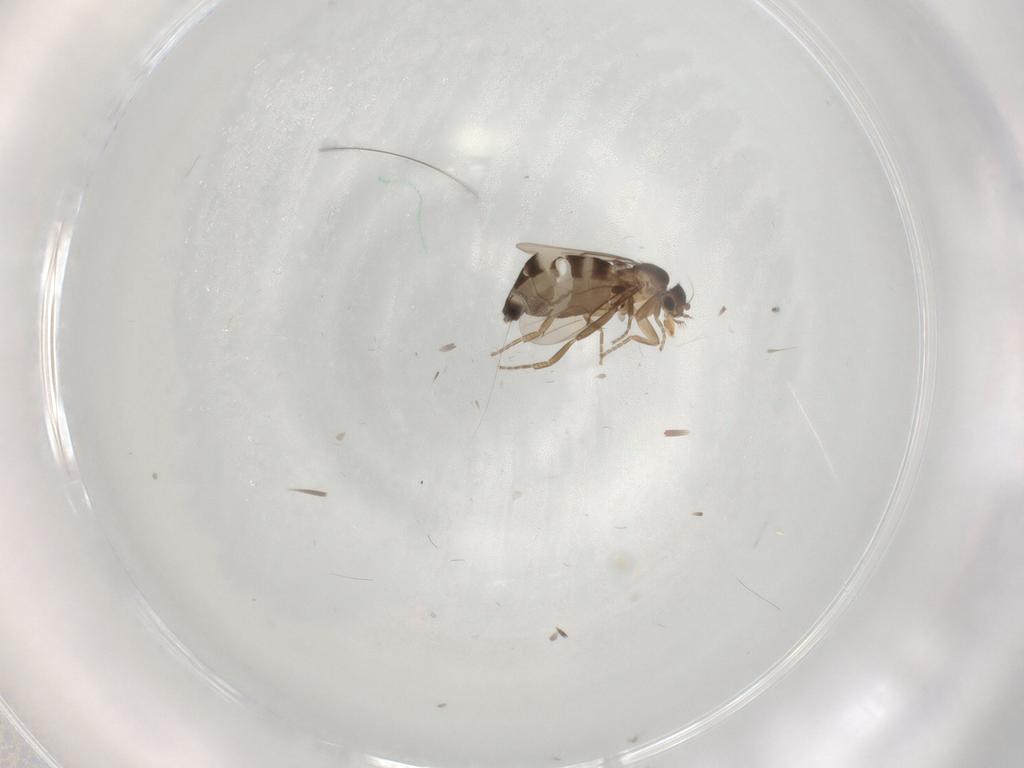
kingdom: Animalia
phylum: Arthropoda
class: Insecta
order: Diptera
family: Phoridae
